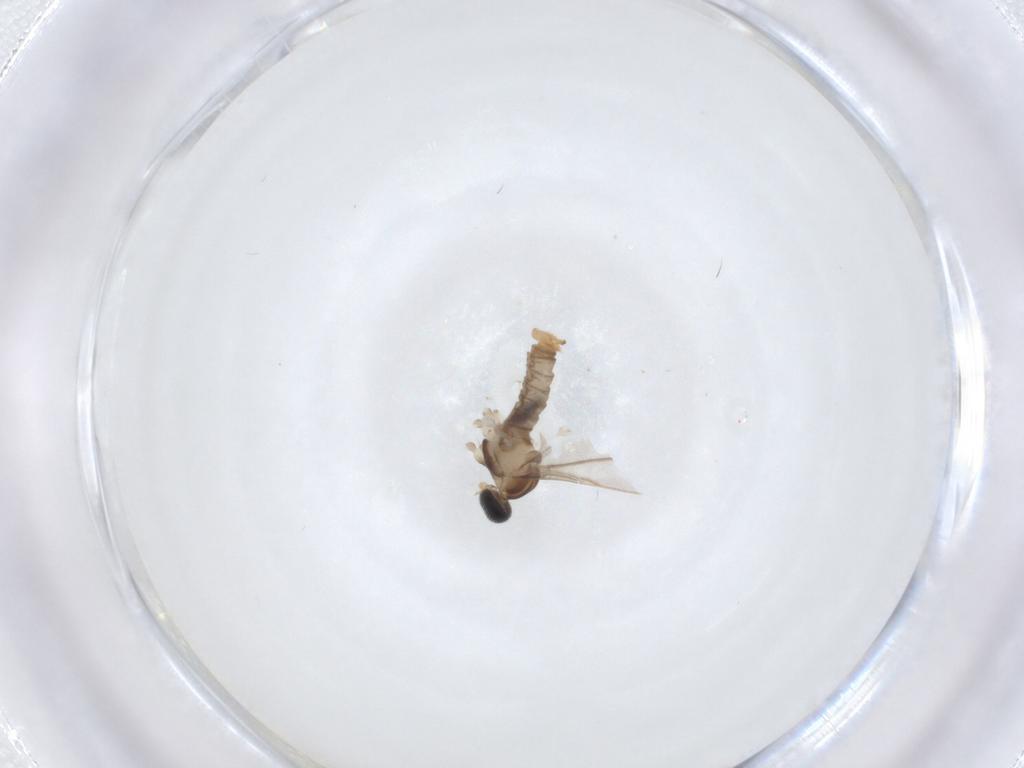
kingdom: Animalia
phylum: Arthropoda
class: Insecta
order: Diptera
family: Cecidomyiidae
